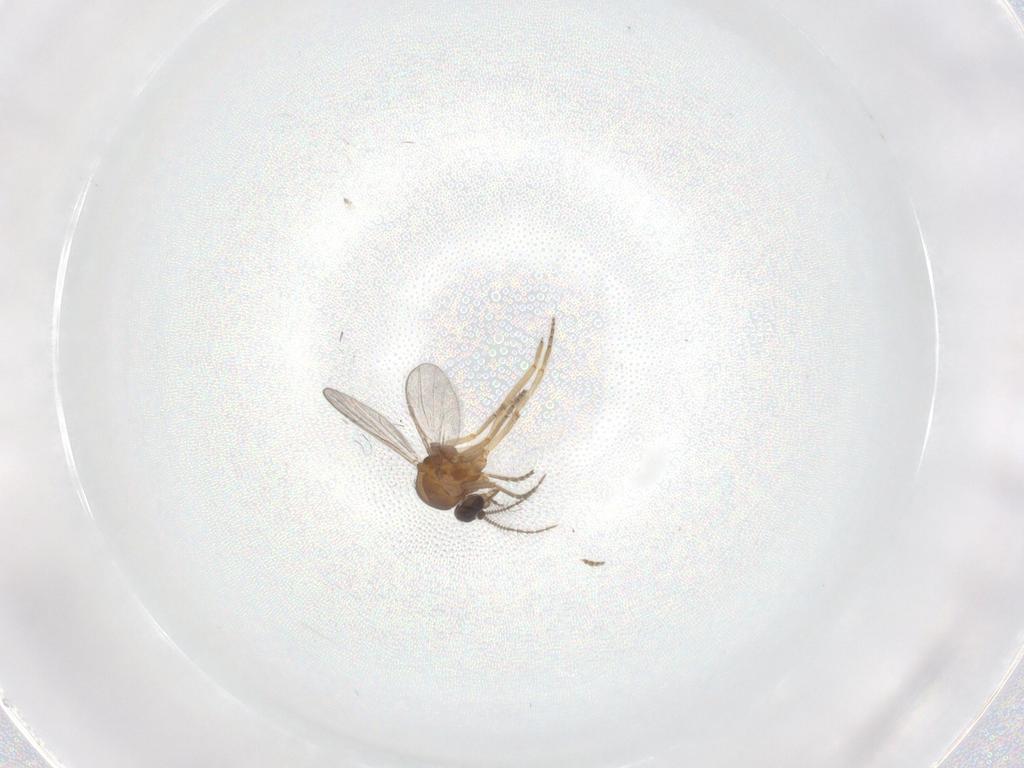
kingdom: Animalia
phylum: Arthropoda
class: Insecta
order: Diptera
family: Ceratopogonidae
